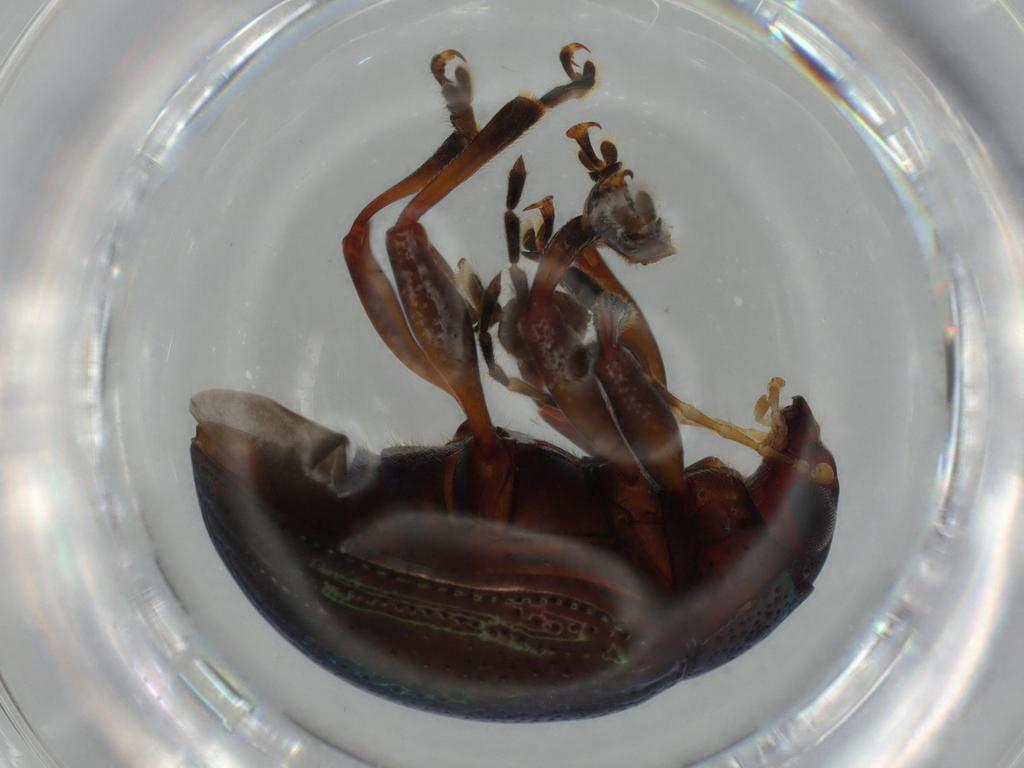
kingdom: Animalia
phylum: Arthropoda
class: Insecta
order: Coleoptera
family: Chrysomelidae
